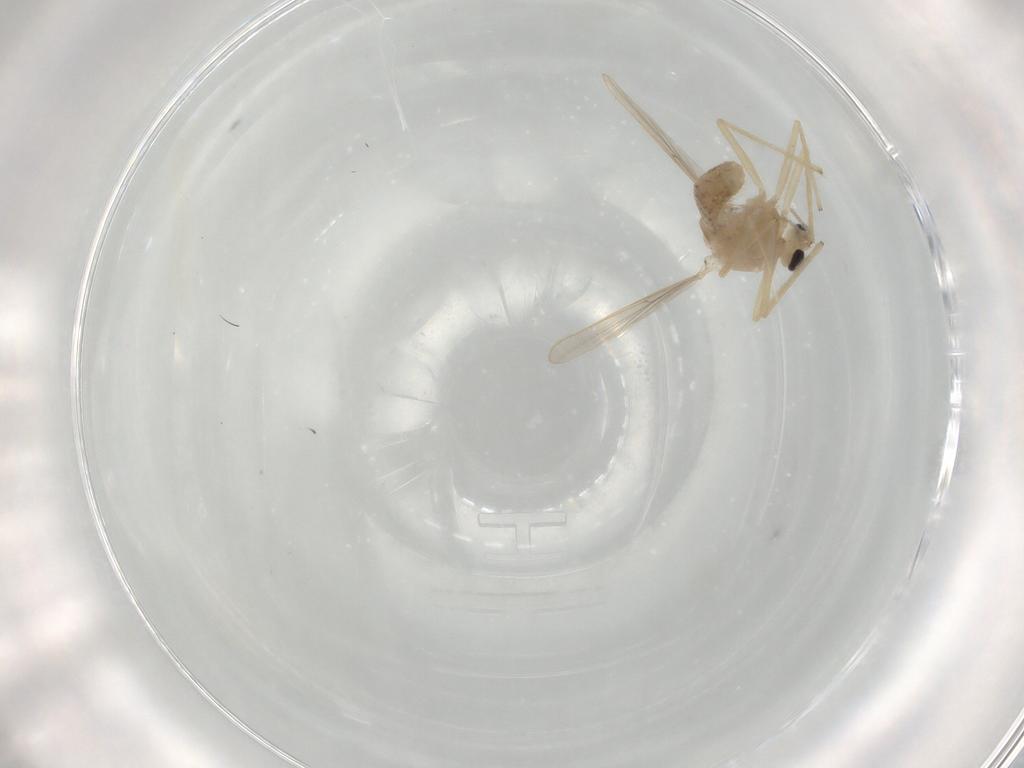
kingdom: Animalia
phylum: Arthropoda
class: Insecta
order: Diptera
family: Chironomidae
